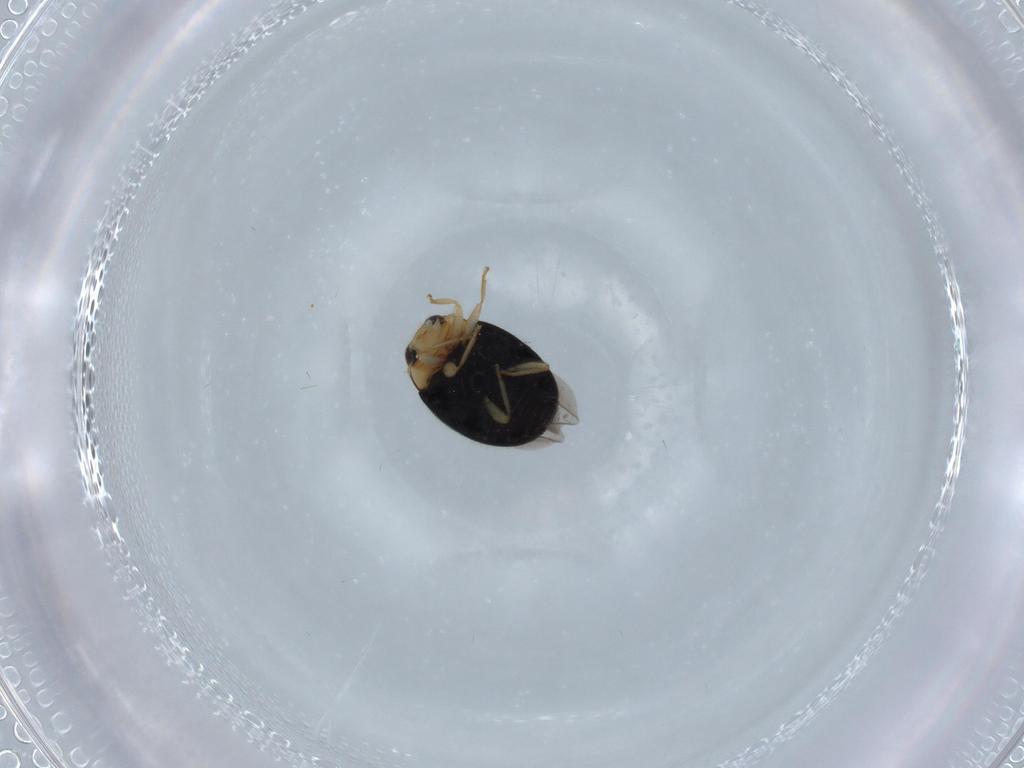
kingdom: Animalia
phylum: Arthropoda
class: Insecta
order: Coleoptera
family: Coccinellidae
